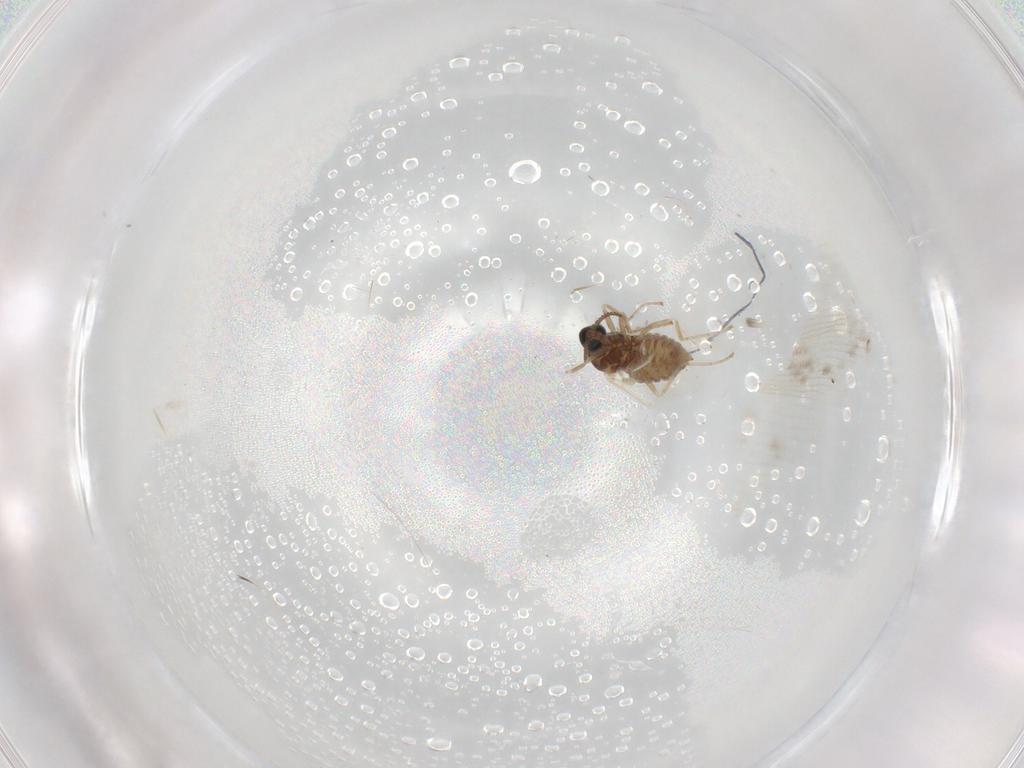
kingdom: Animalia
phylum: Arthropoda
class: Insecta
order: Diptera
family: Cecidomyiidae
